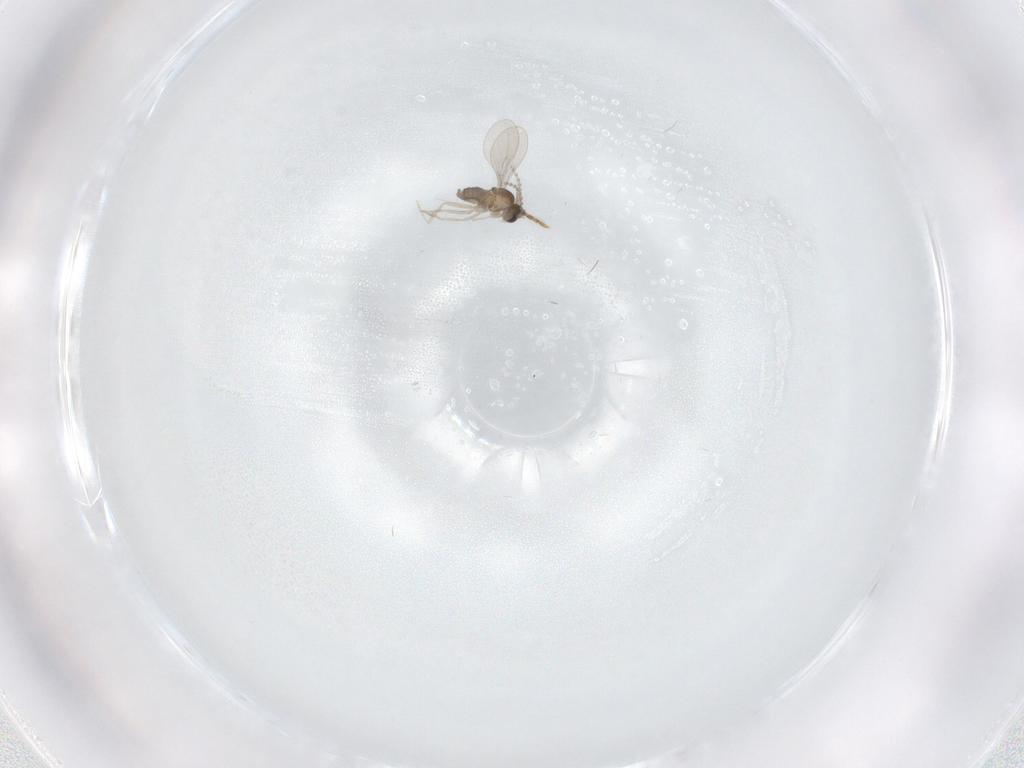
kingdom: Animalia
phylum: Arthropoda
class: Insecta
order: Diptera
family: Sciaridae
